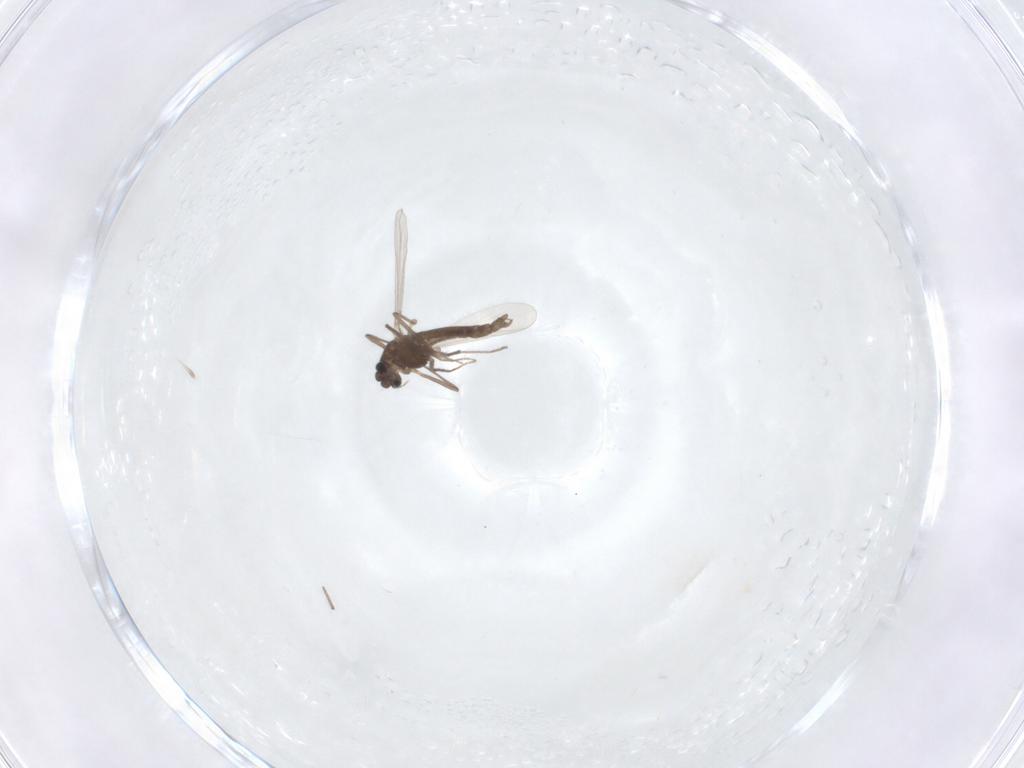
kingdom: Animalia
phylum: Arthropoda
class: Insecta
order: Diptera
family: Chironomidae
